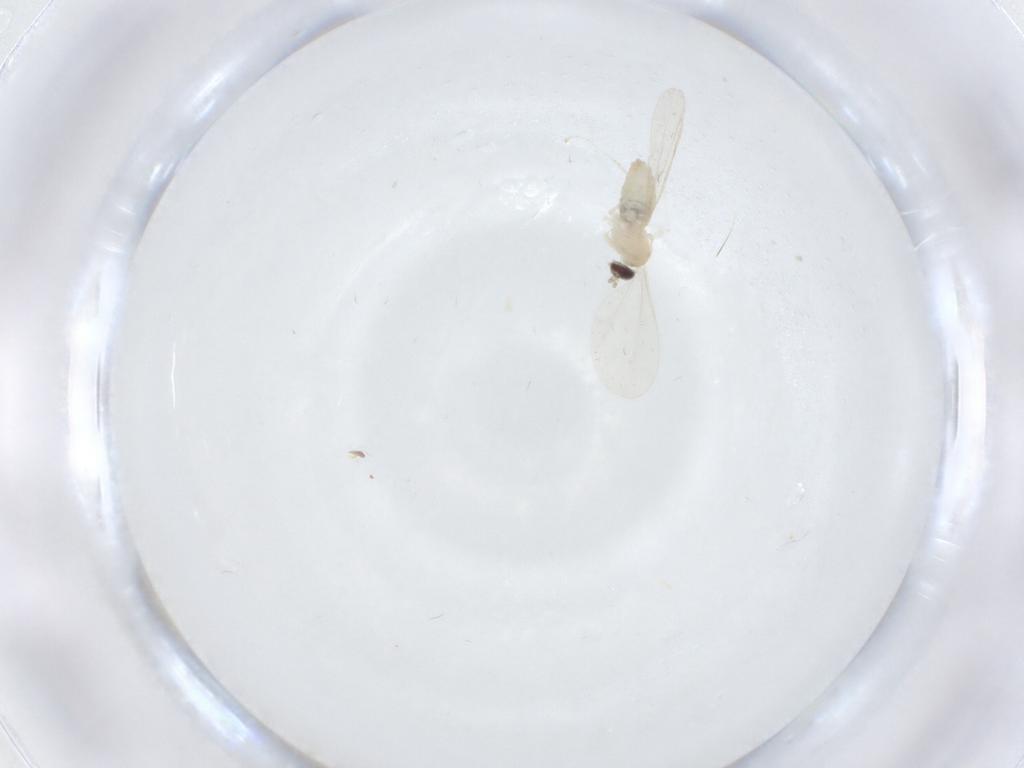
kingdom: Animalia
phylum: Arthropoda
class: Insecta
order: Diptera
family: Cecidomyiidae
